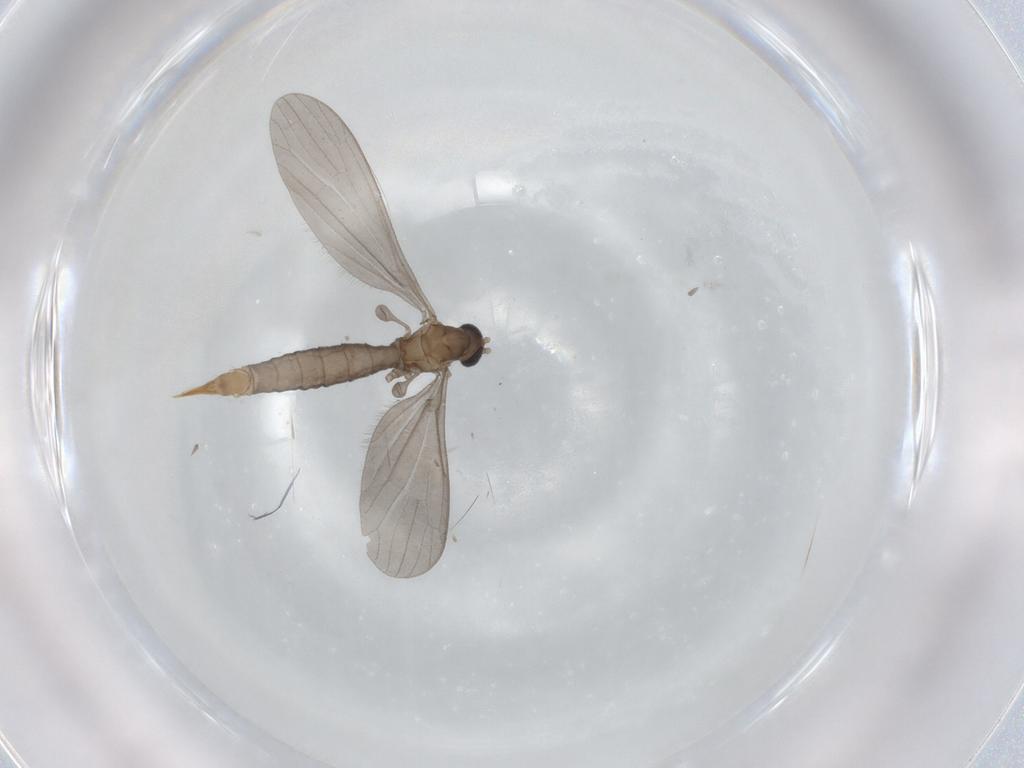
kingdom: Animalia
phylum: Arthropoda
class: Insecta
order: Diptera
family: Limoniidae
